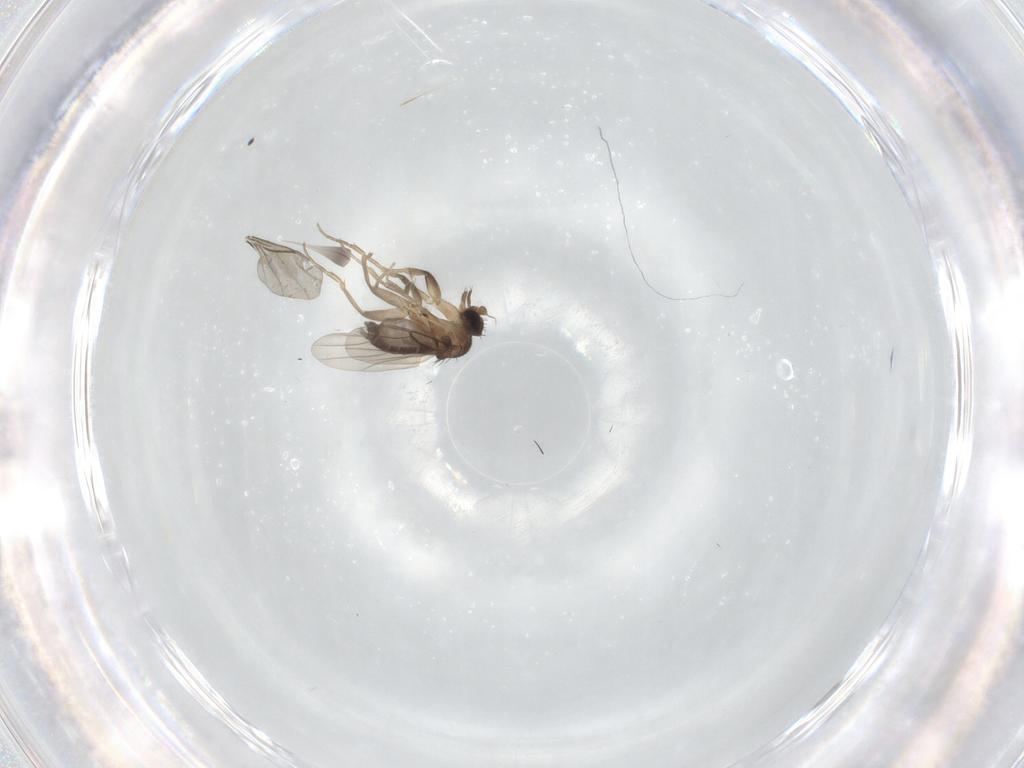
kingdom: Animalia
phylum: Arthropoda
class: Insecta
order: Diptera
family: Phoridae
